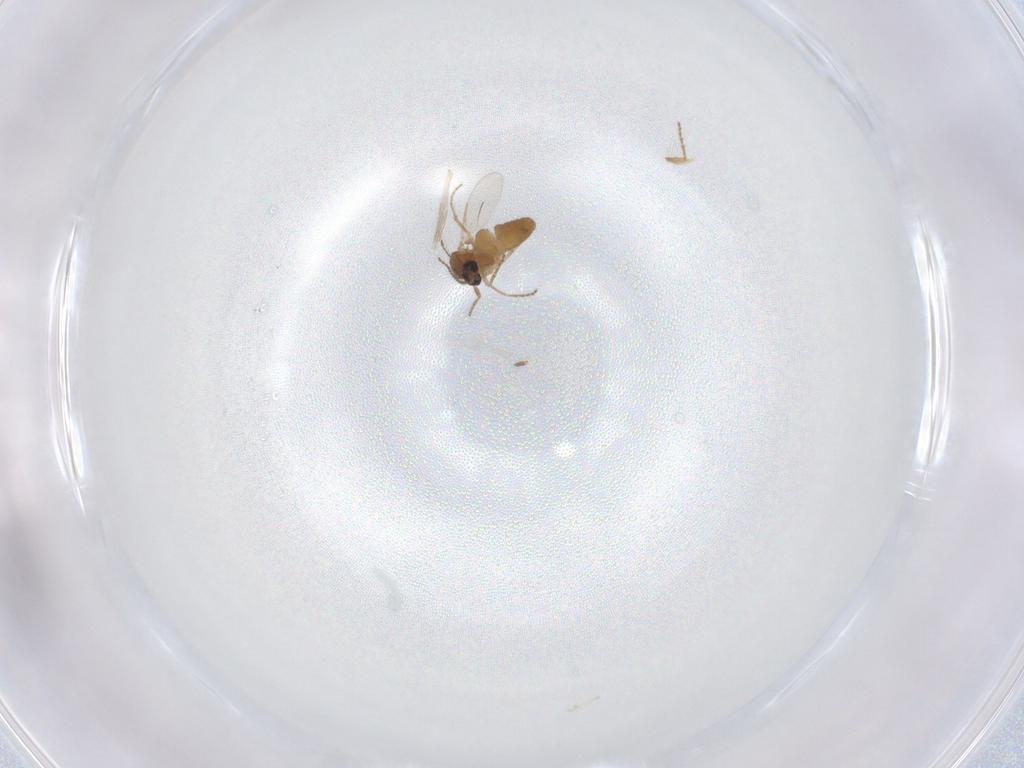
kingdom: Animalia
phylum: Arthropoda
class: Insecta
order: Diptera
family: Ceratopogonidae
